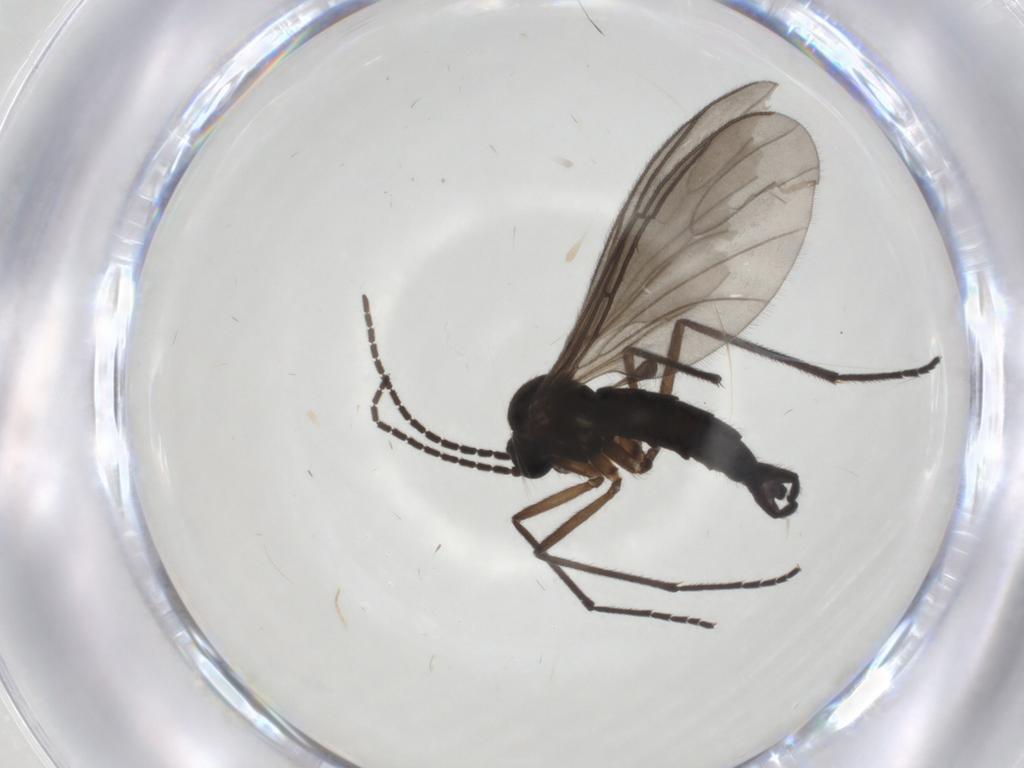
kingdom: Animalia
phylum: Arthropoda
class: Insecta
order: Diptera
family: Sciaridae
